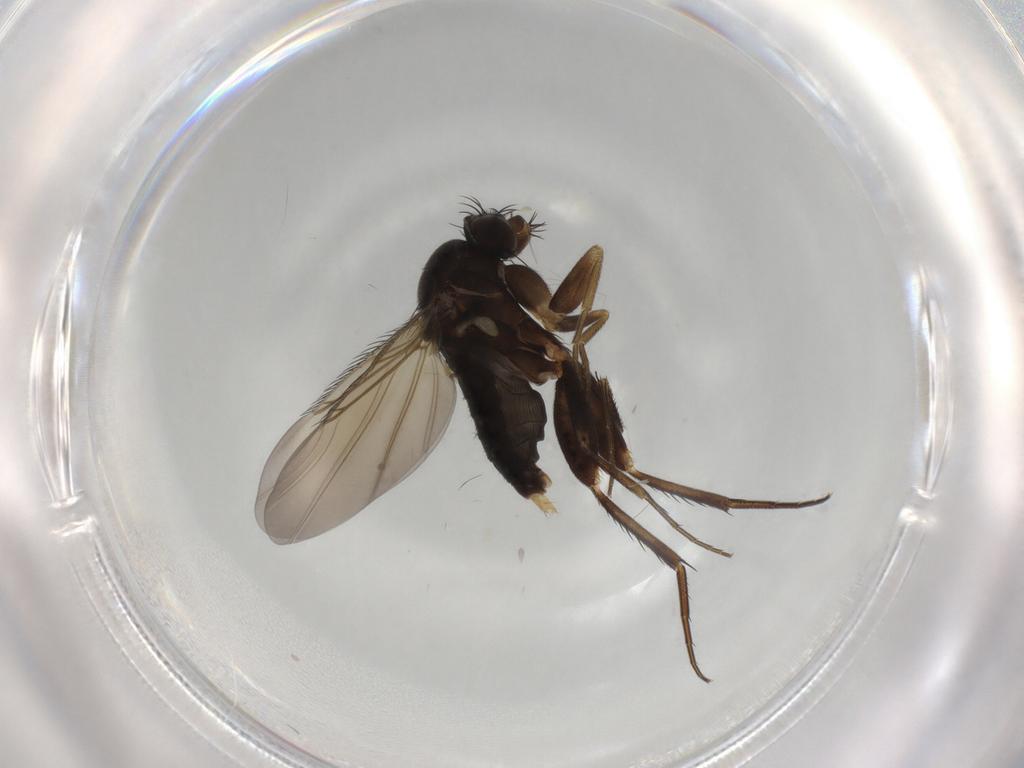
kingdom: Animalia
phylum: Arthropoda
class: Insecta
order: Diptera
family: Phoridae
